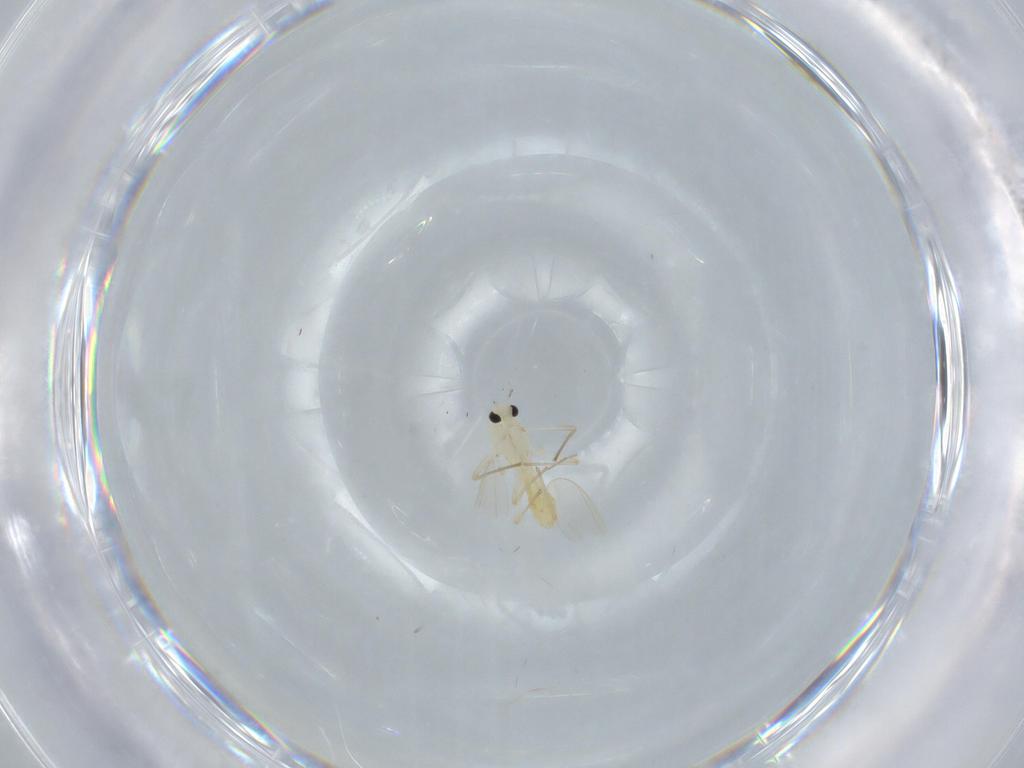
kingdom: Animalia
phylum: Arthropoda
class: Insecta
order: Diptera
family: Chironomidae
